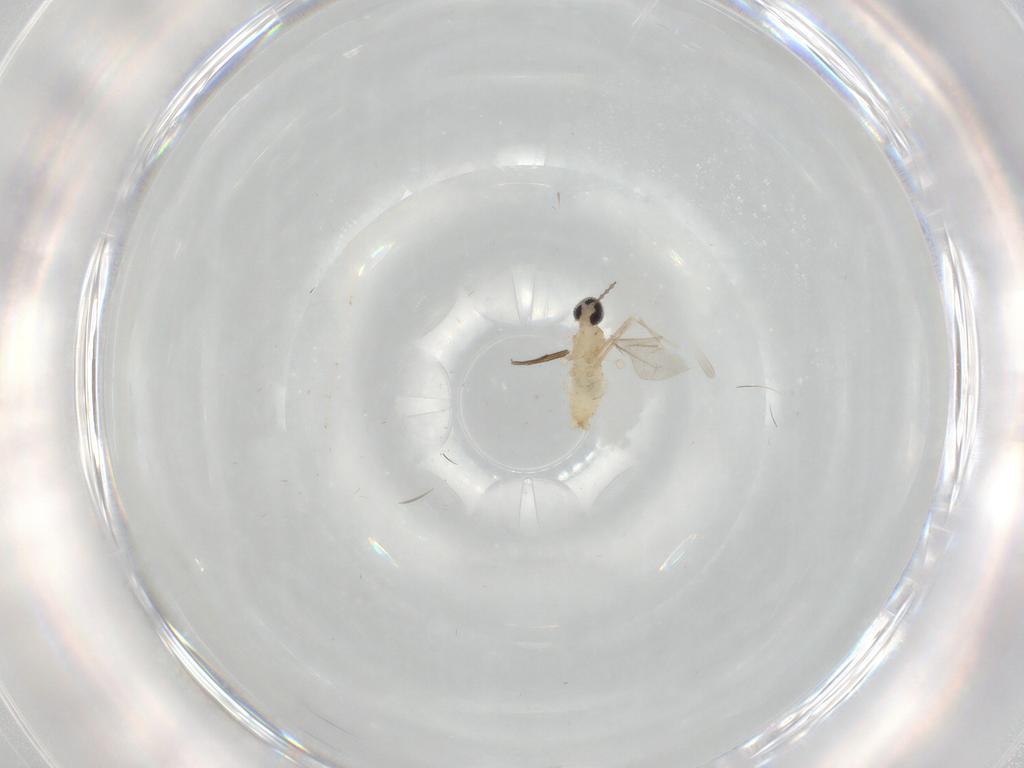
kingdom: Animalia
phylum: Arthropoda
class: Insecta
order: Diptera
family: Cecidomyiidae
